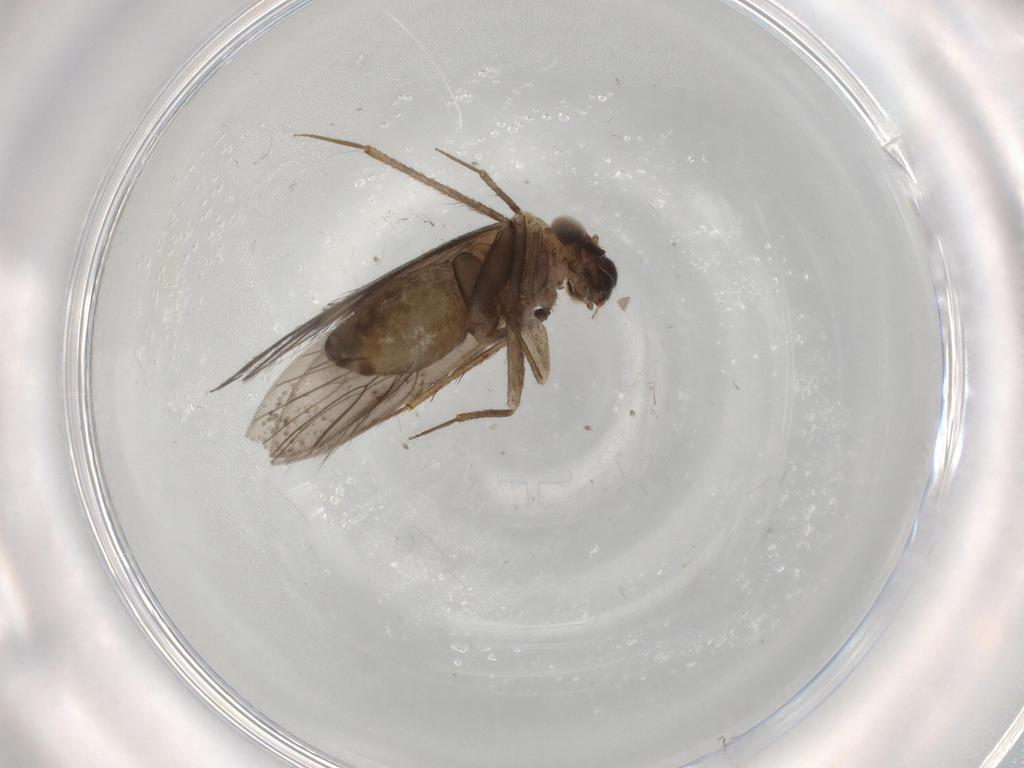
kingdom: Animalia
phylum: Arthropoda
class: Insecta
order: Psocodea
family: Lepidopsocidae
